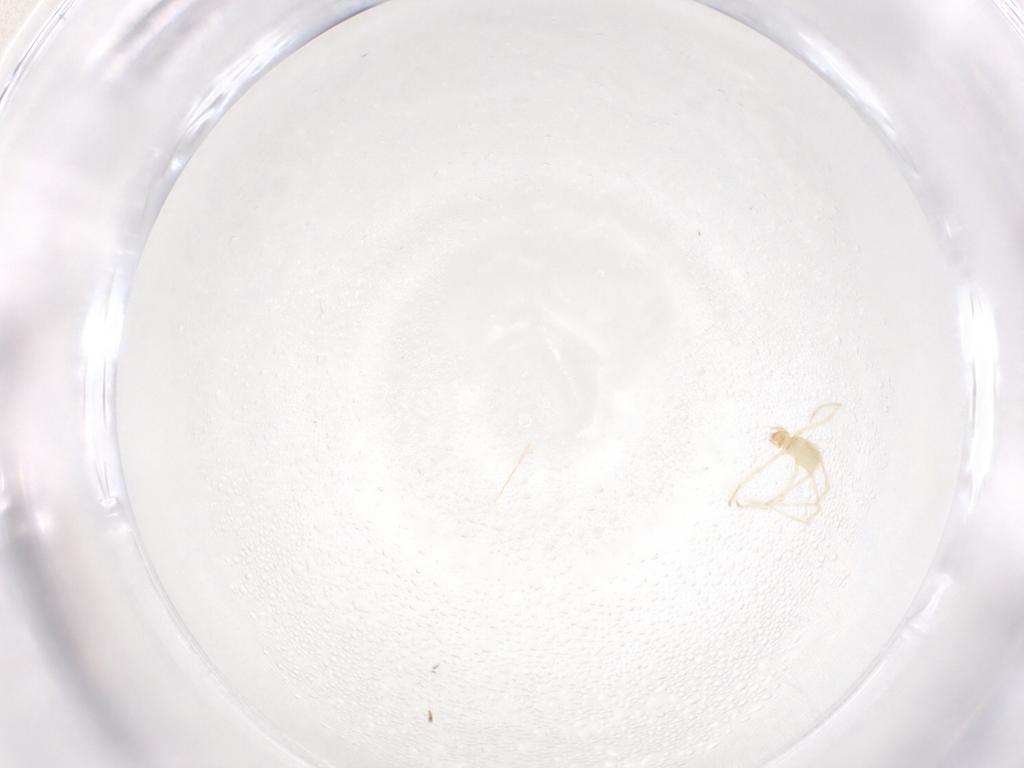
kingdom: Animalia
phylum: Arthropoda
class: Arachnida
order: Trombidiformes
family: Erythraeidae
